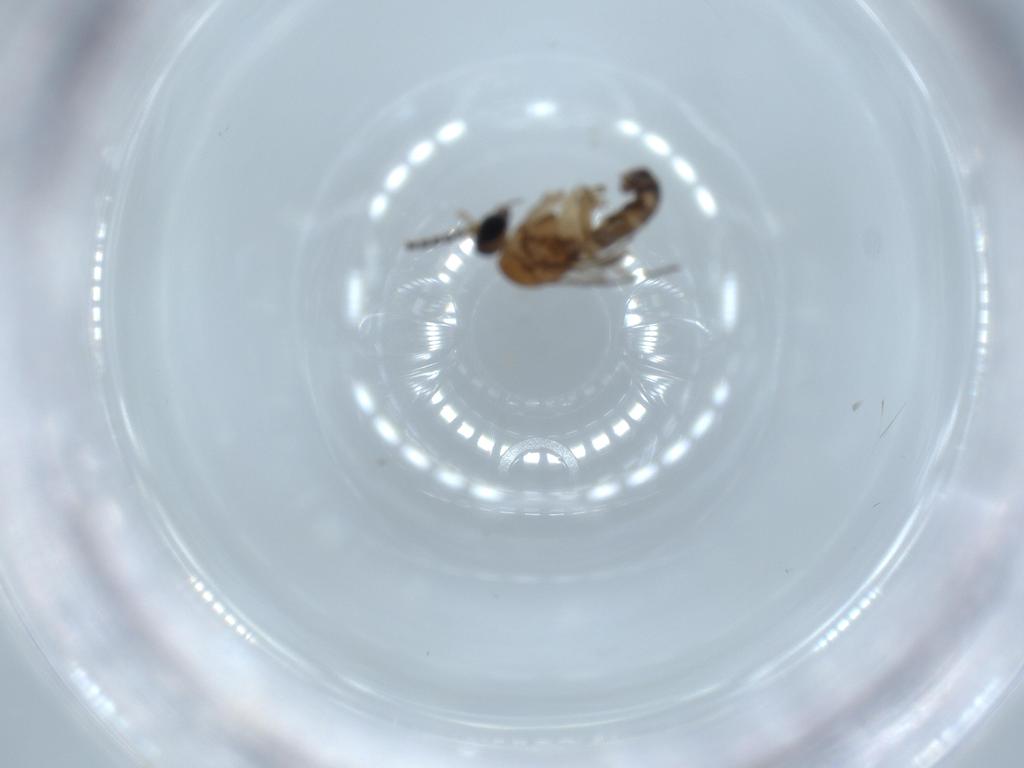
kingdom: Animalia
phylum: Arthropoda
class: Insecta
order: Diptera
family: Sciaridae
